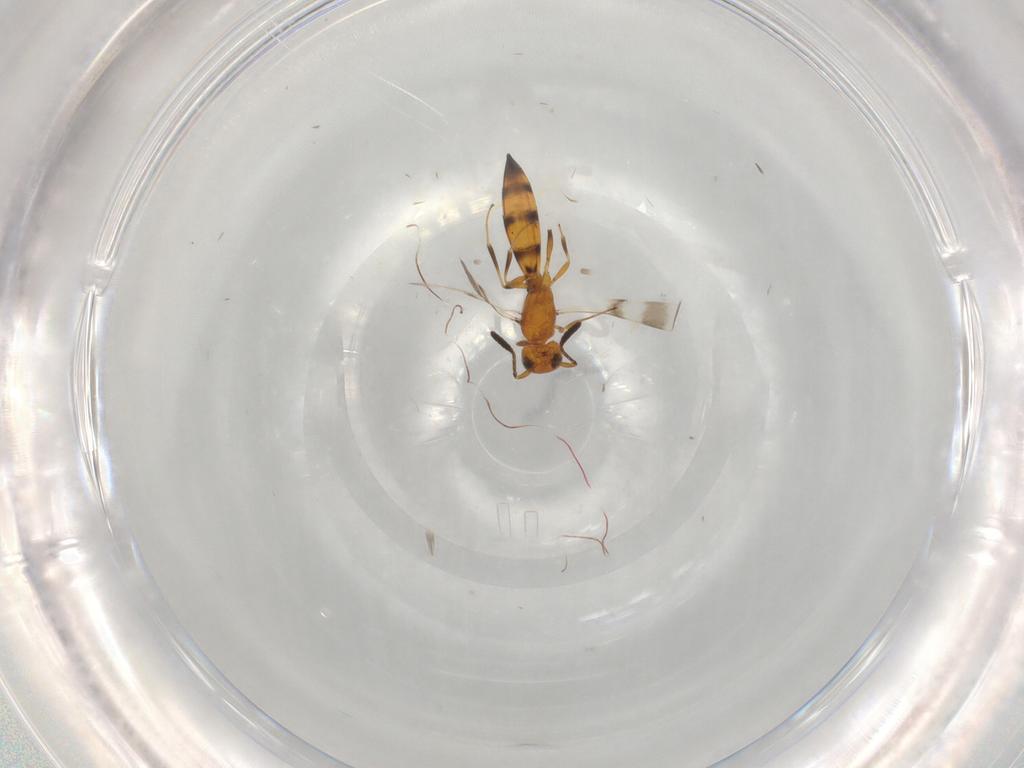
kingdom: Animalia
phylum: Arthropoda
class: Insecta
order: Hymenoptera
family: Scelionidae
